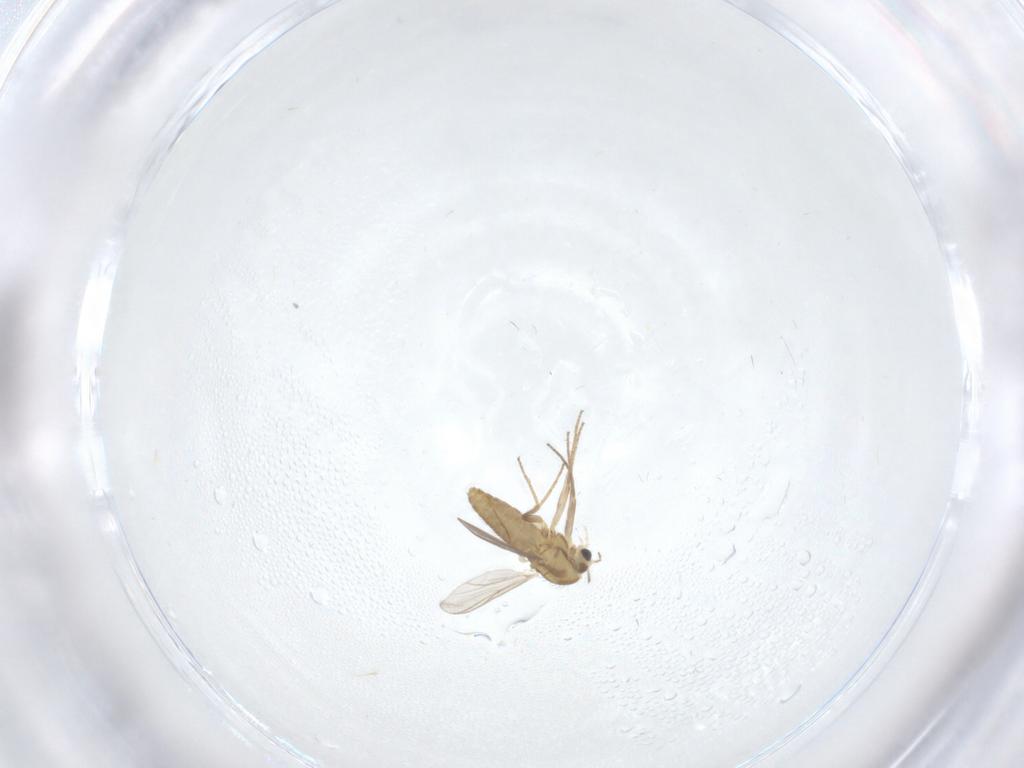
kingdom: Animalia
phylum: Arthropoda
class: Insecta
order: Diptera
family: Chironomidae
